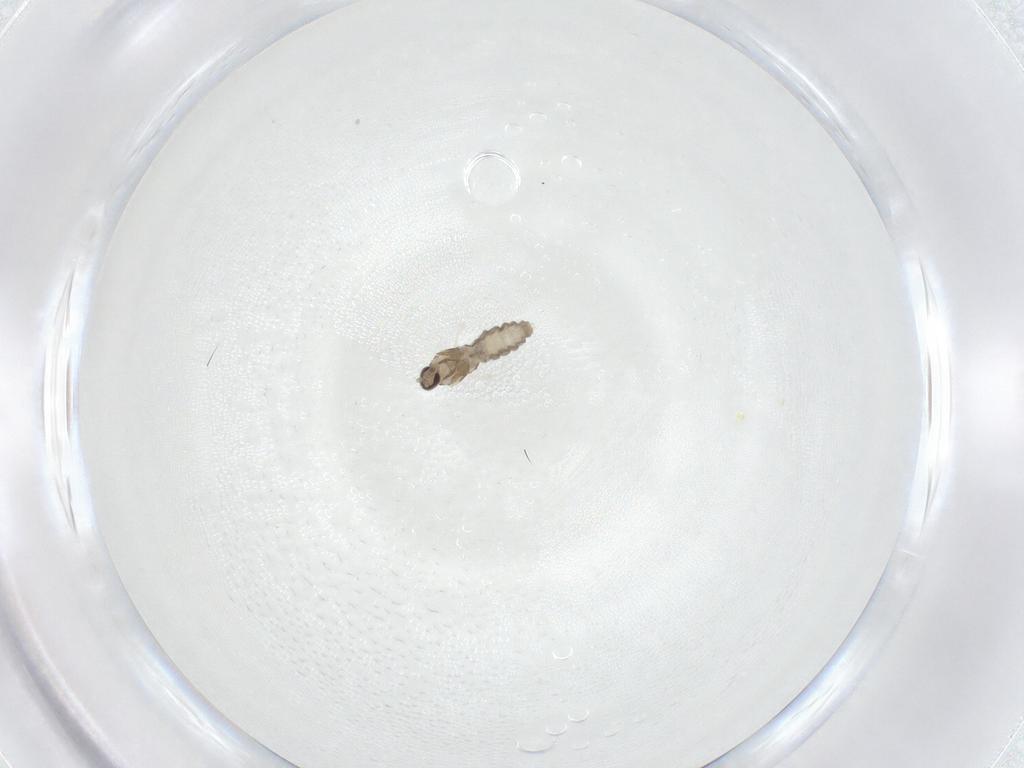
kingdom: Animalia
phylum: Arthropoda
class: Insecta
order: Diptera
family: Cecidomyiidae
